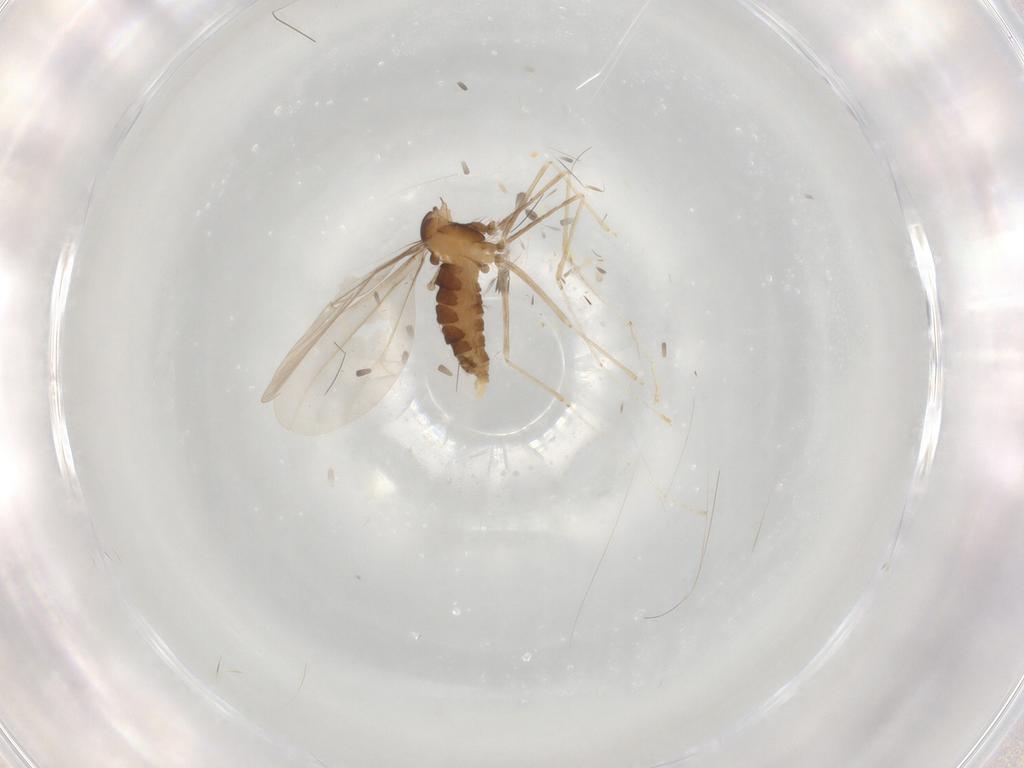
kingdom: Animalia
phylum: Arthropoda
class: Insecta
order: Diptera
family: Cecidomyiidae
